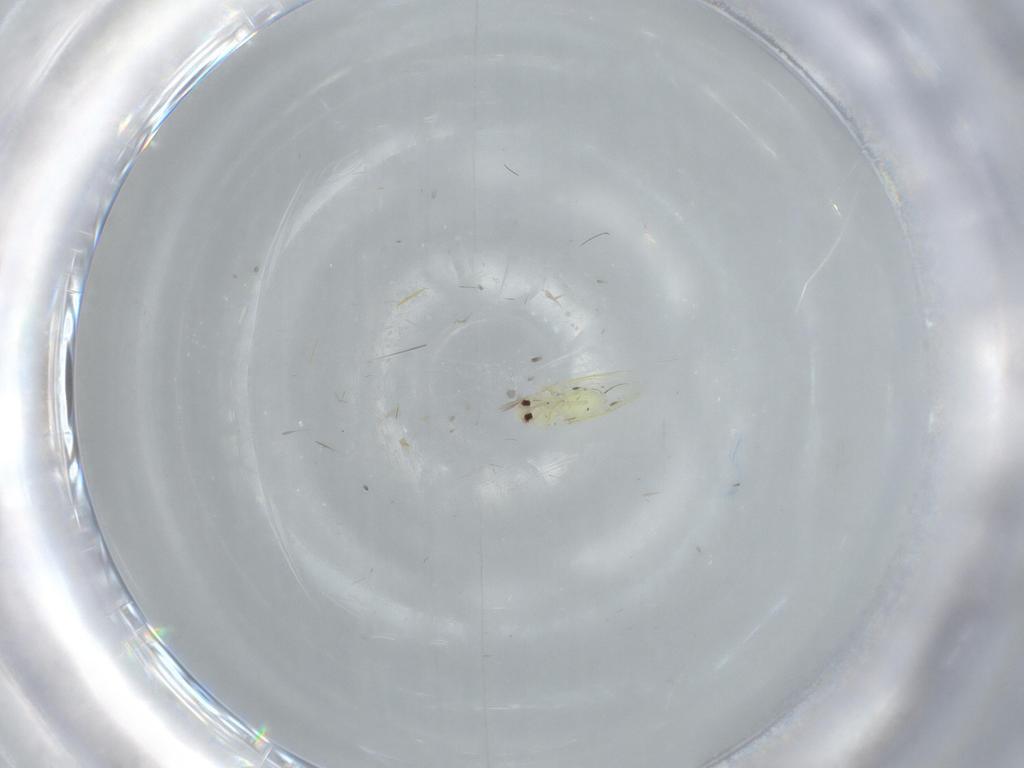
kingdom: Animalia
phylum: Arthropoda
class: Insecta
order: Hemiptera
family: Aleyrodidae
